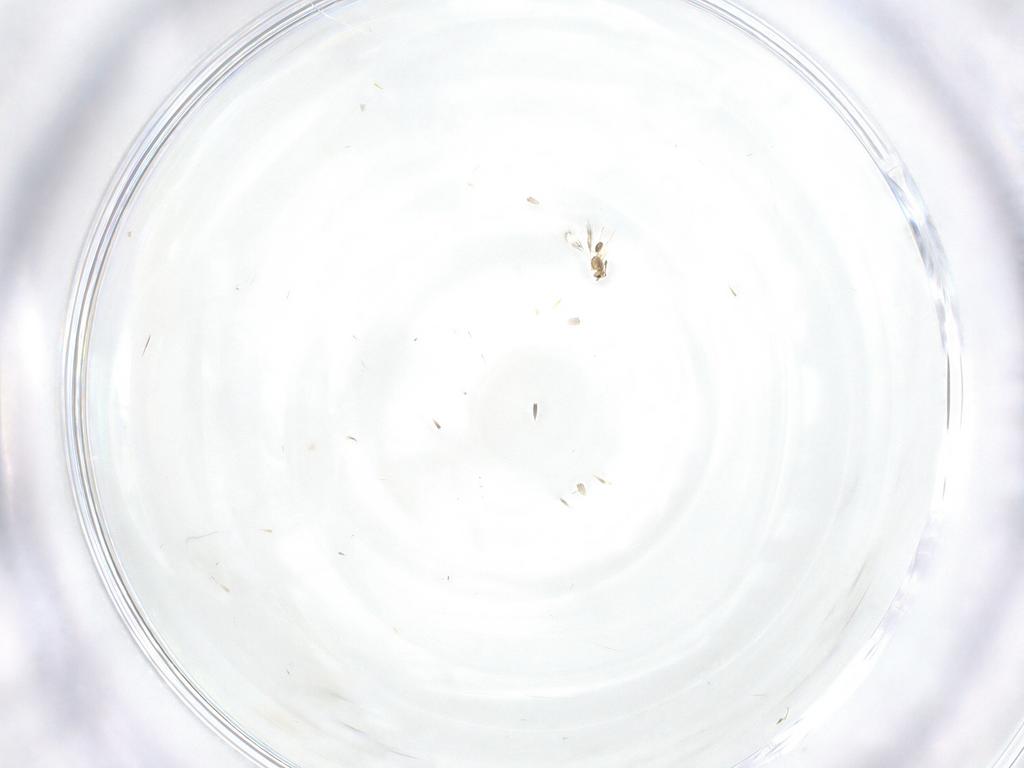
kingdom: Animalia
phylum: Arthropoda
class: Insecta
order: Hymenoptera
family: Mymarommatidae
